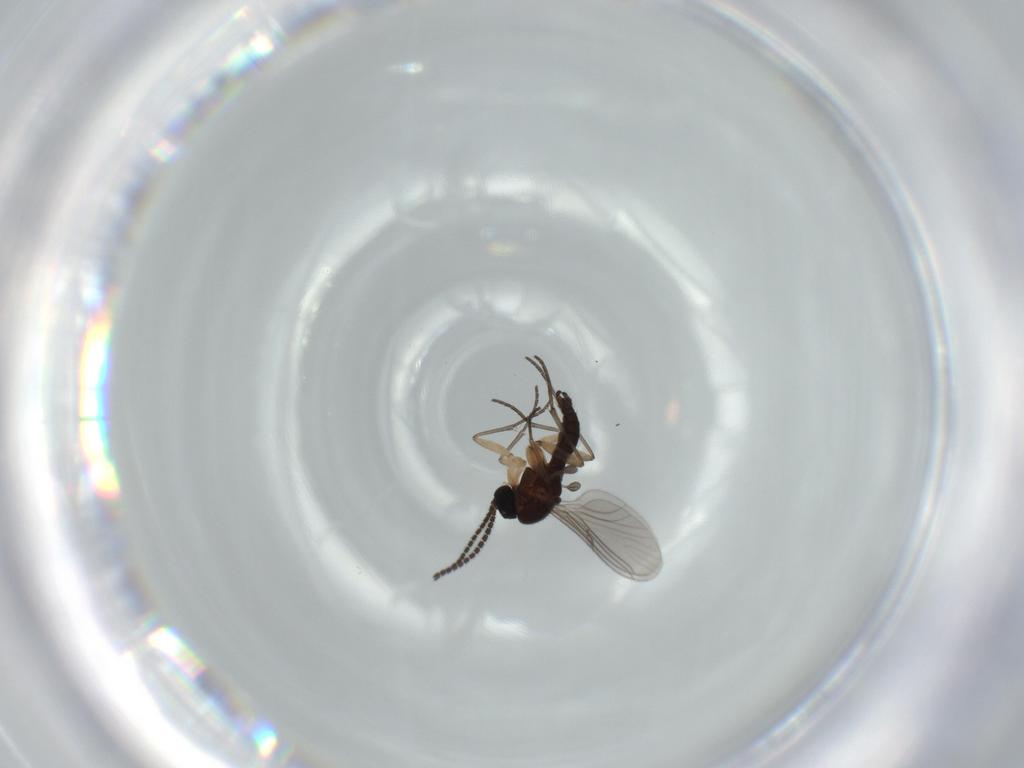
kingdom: Animalia
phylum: Arthropoda
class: Insecta
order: Diptera
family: Sciaridae
